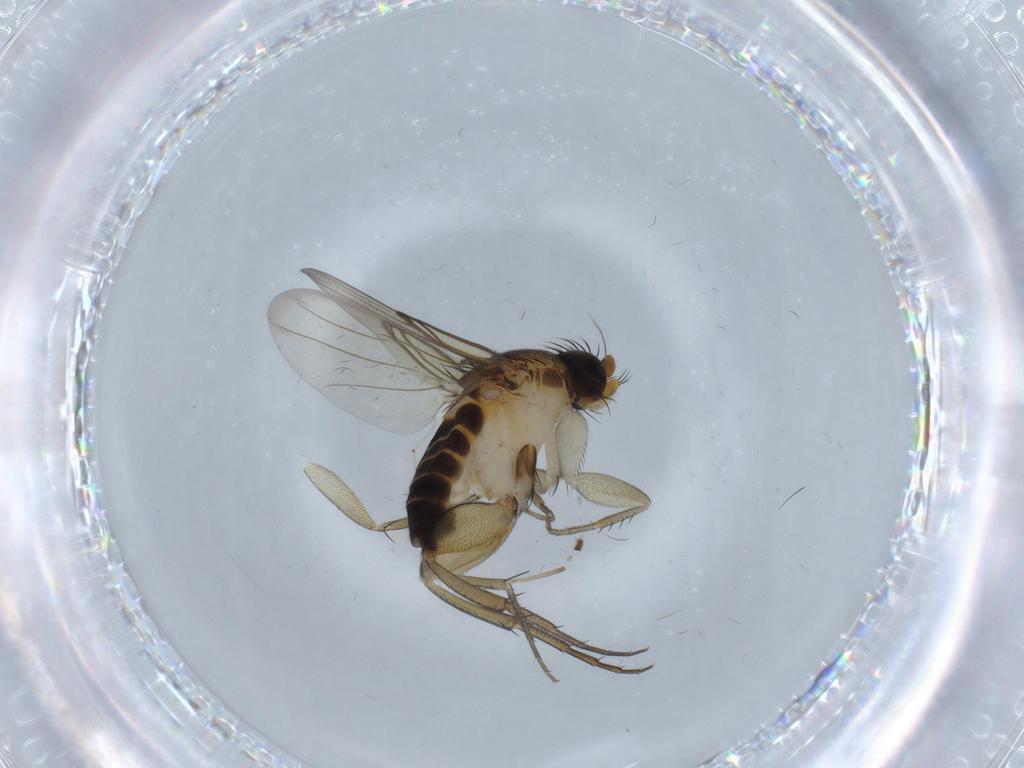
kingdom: Animalia
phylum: Arthropoda
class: Insecta
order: Diptera
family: Phoridae
